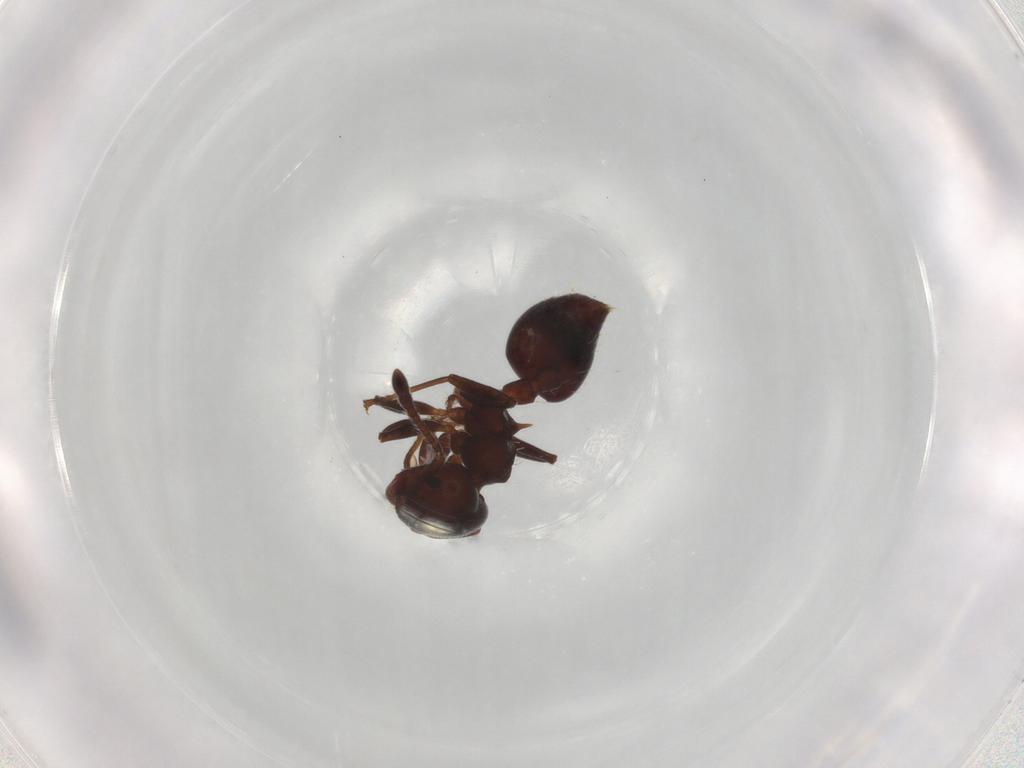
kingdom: Animalia
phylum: Arthropoda
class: Insecta
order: Hymenoptera
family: Formicidae
